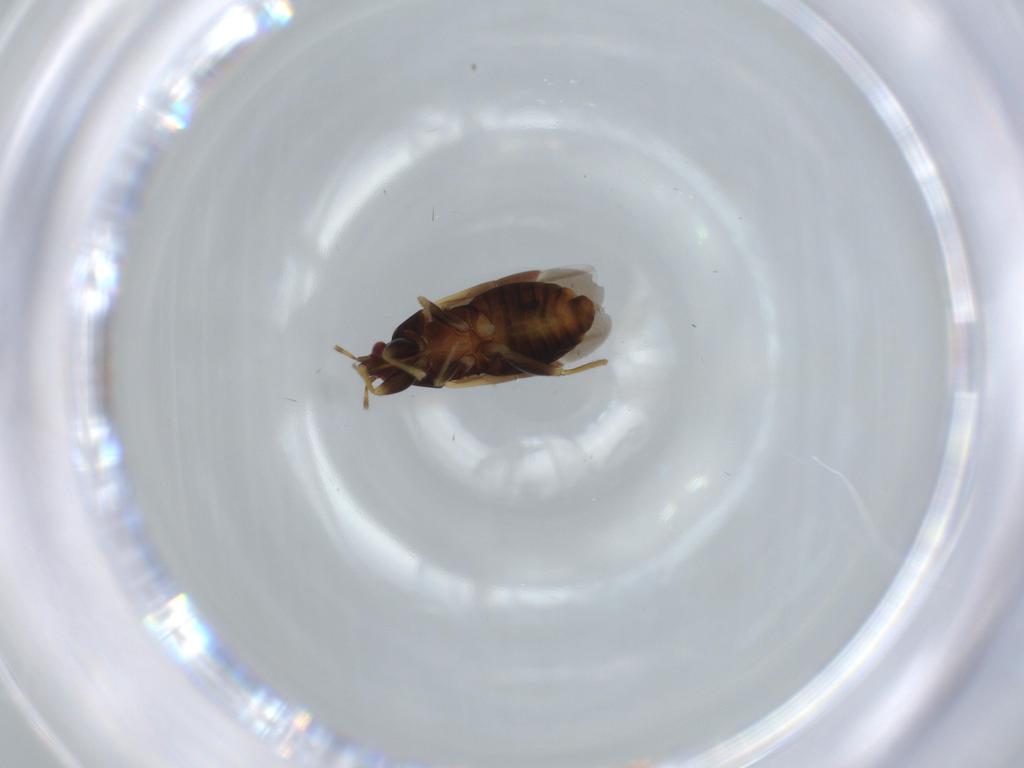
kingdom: Animalia
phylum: Arthropoda
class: Insecta
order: Hemiptera
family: Anthocoridae
